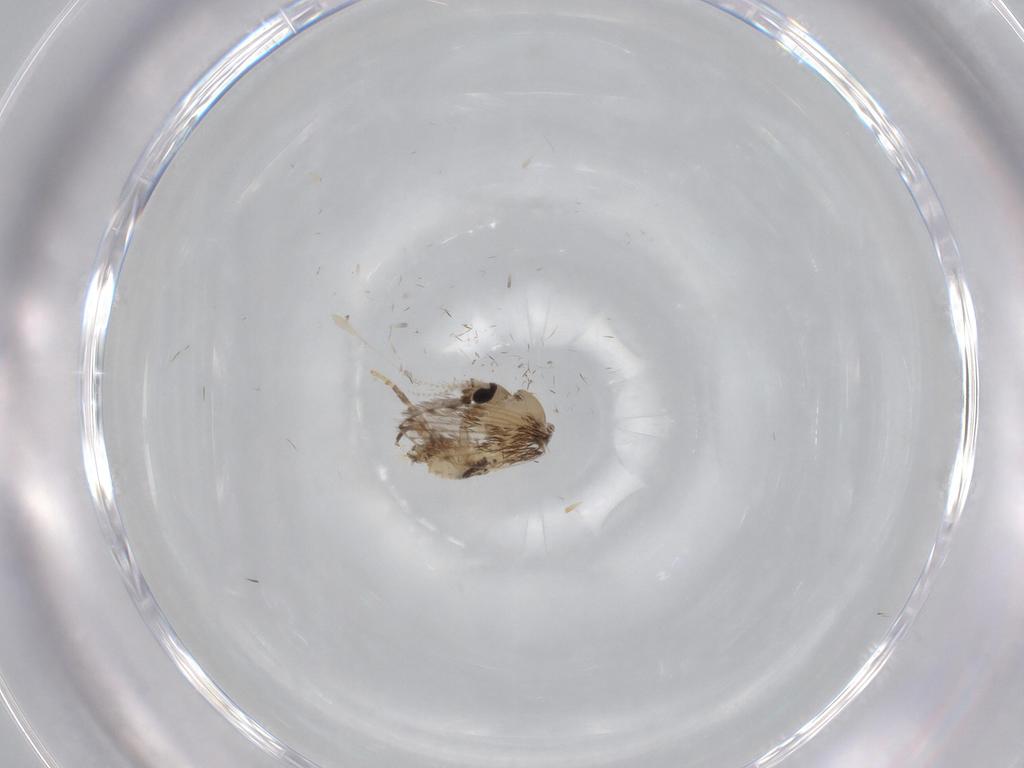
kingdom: Animalia
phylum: Arthropoda
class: Insecta
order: Diptera
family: Psychodidae
